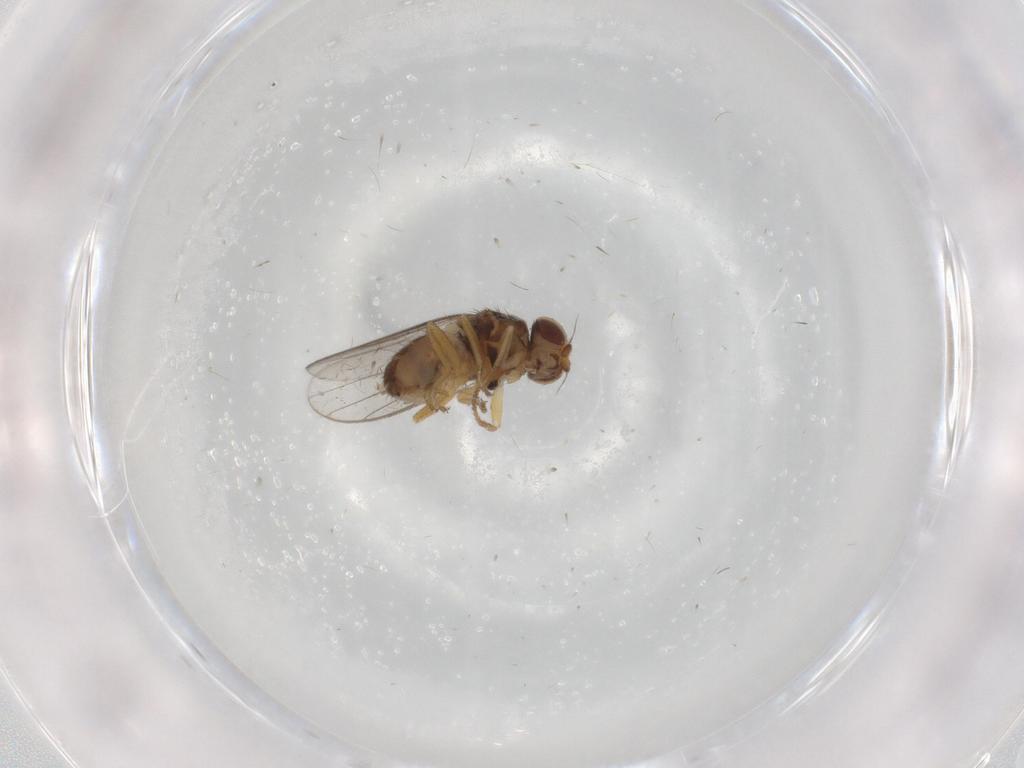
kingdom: Animalia
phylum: Arthropoda
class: Insecta
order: Diptera
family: Chloropidae
